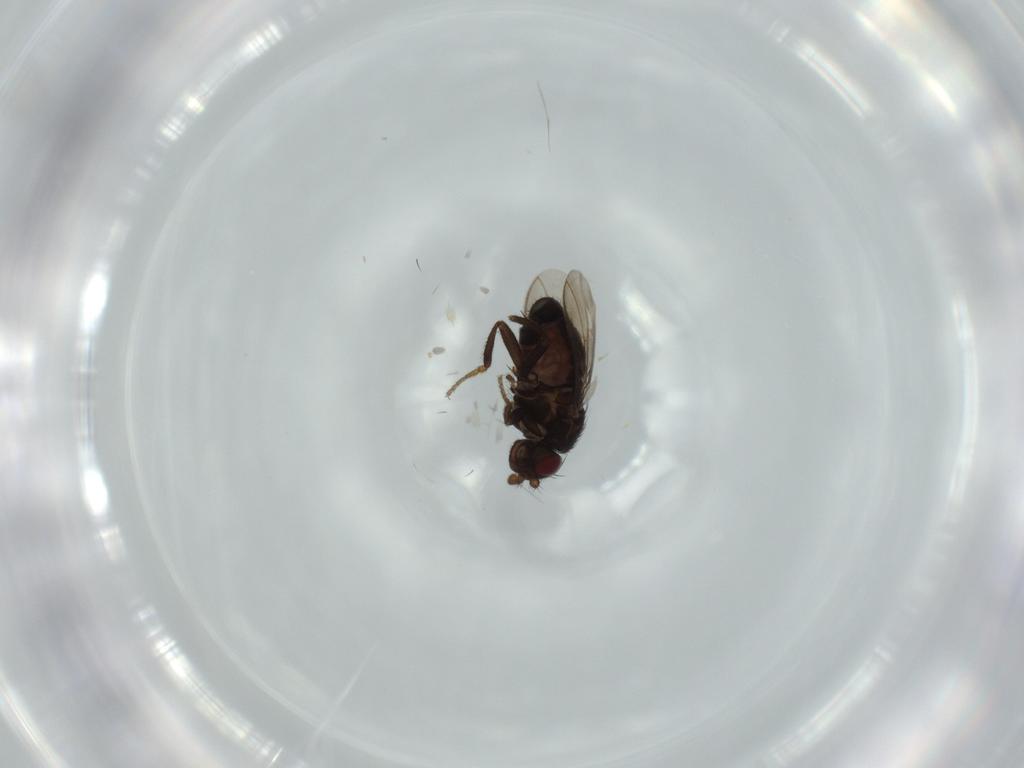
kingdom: Animalia
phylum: Arthropoda
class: Insecta
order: Diptera
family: Sphaeroceridae
